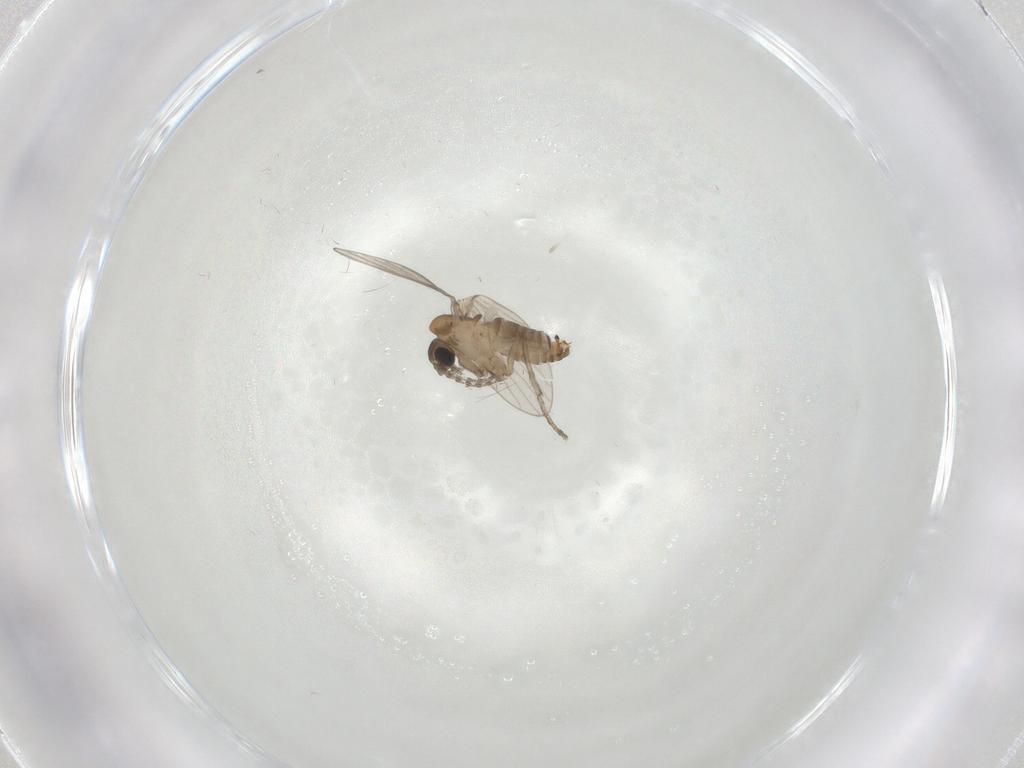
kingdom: Animalia
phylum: Arthropoda
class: Insecta
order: Diptera
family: Psychodidae
